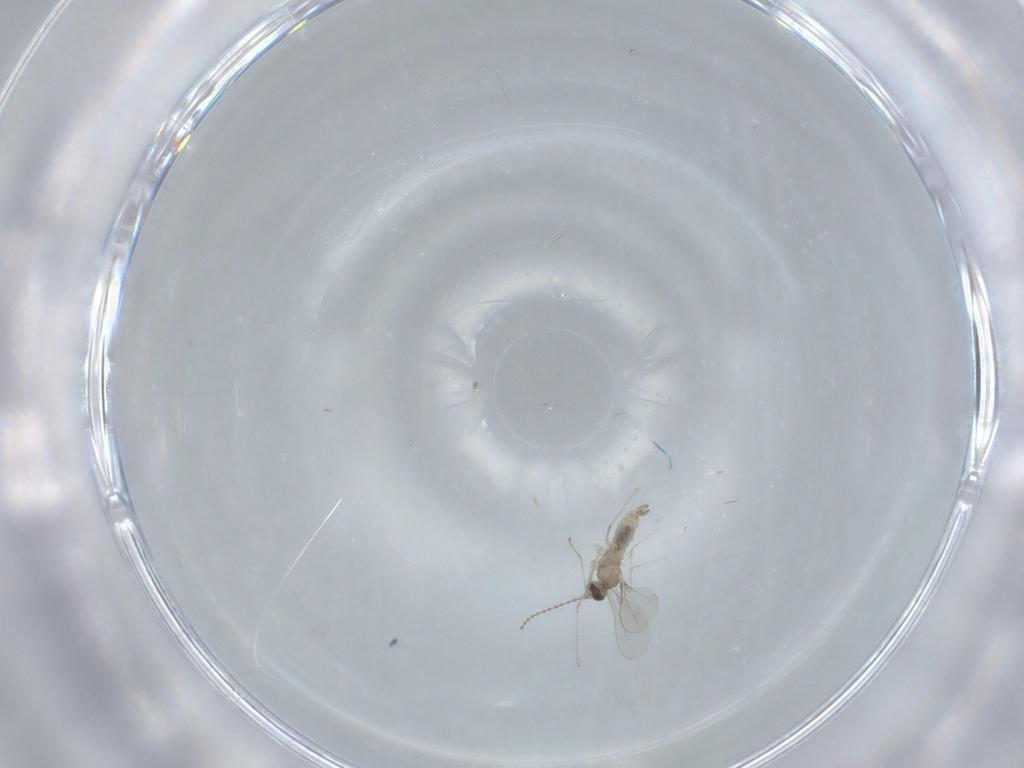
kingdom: Animalia
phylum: Arthropoda
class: Insecta
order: Diptera
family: Cecidomyiidae
